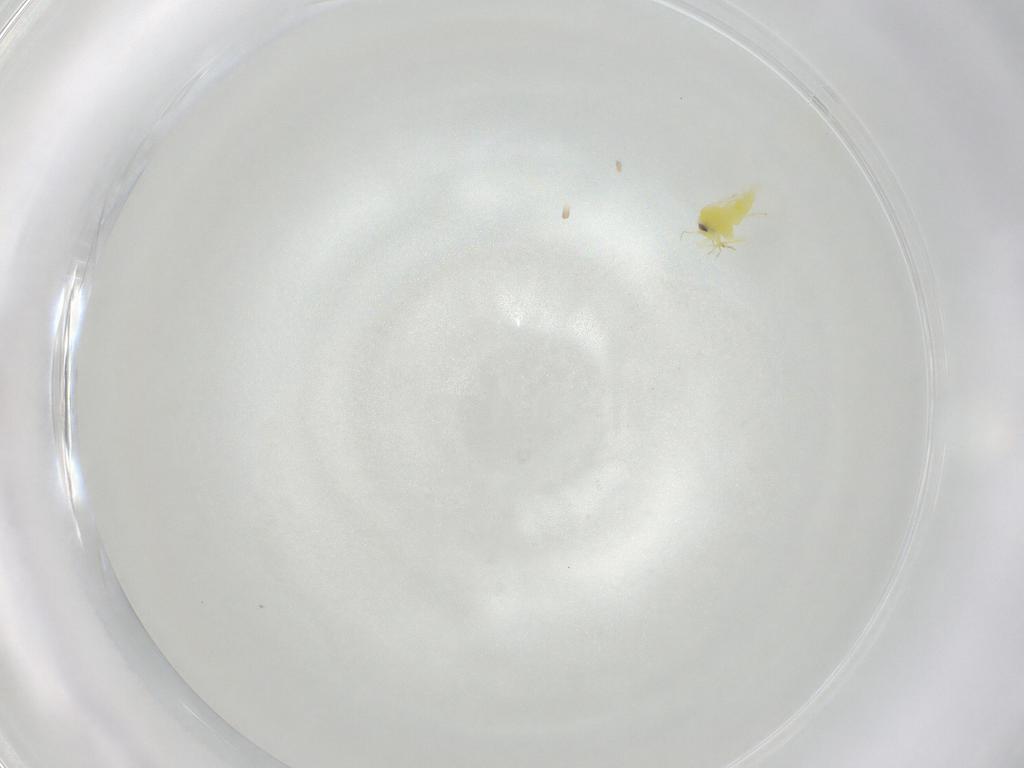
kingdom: Animalia
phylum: Arthropoda
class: Insecta
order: Hemiptera
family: Aleyrodidae
